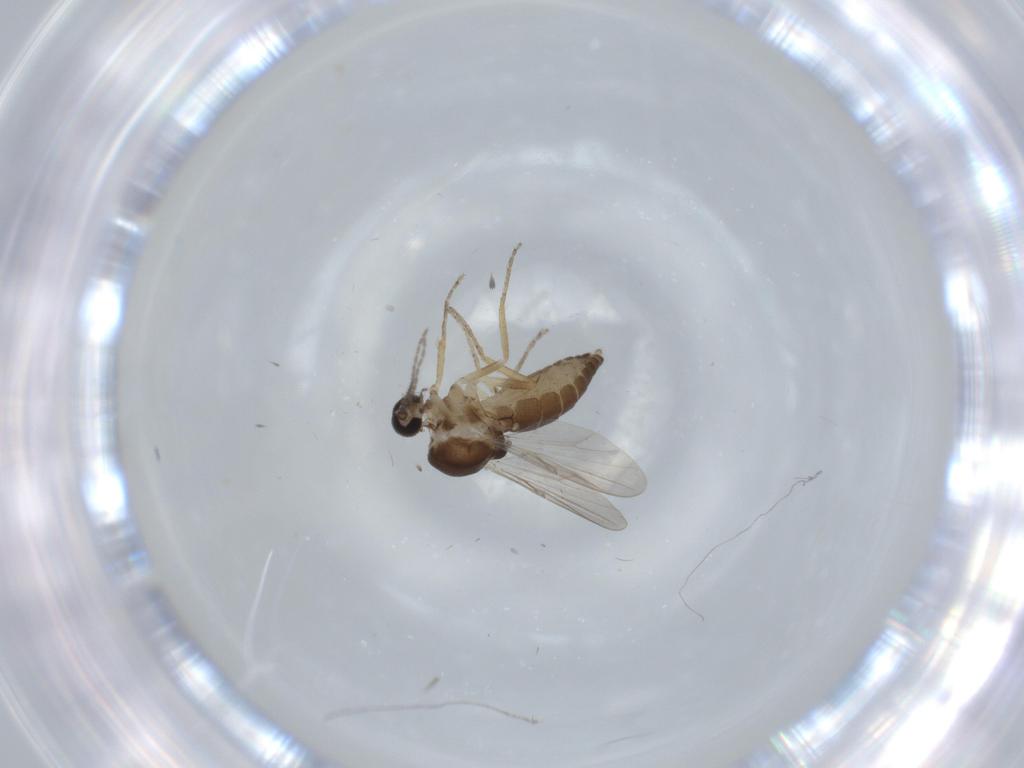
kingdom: Animalia
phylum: Arthropoda
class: Insecta
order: Diptera
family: Ceratopogonidae
